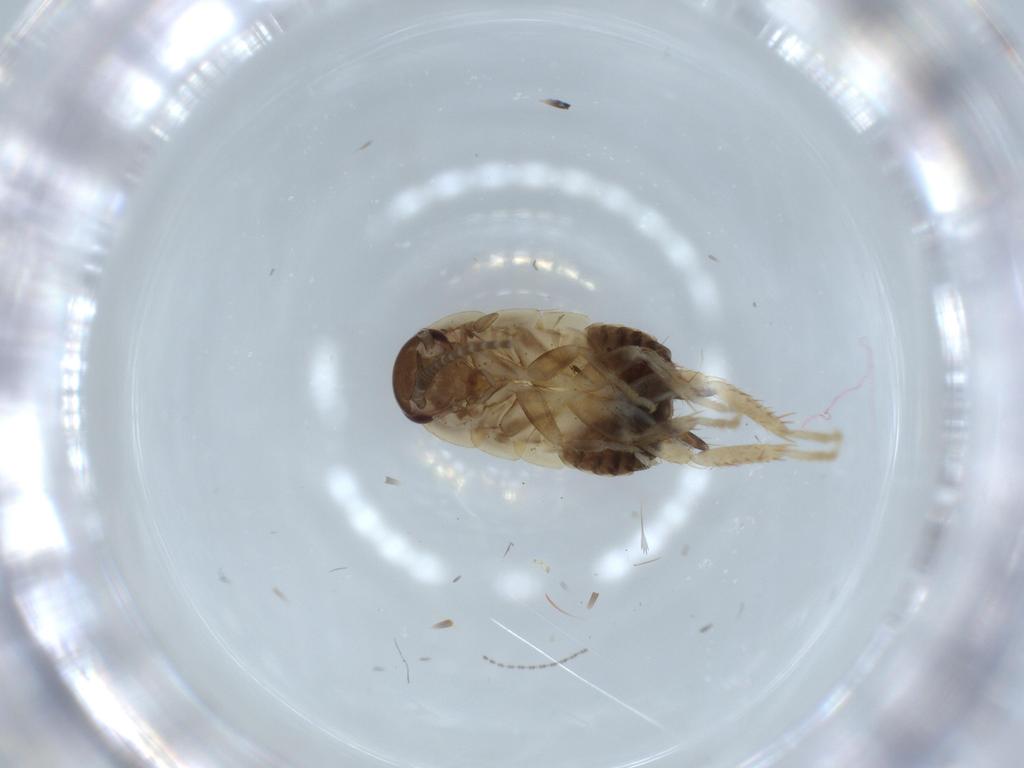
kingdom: Animalia
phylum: Arthropoda
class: Insecta
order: Blattodea
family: Ectobiidae
